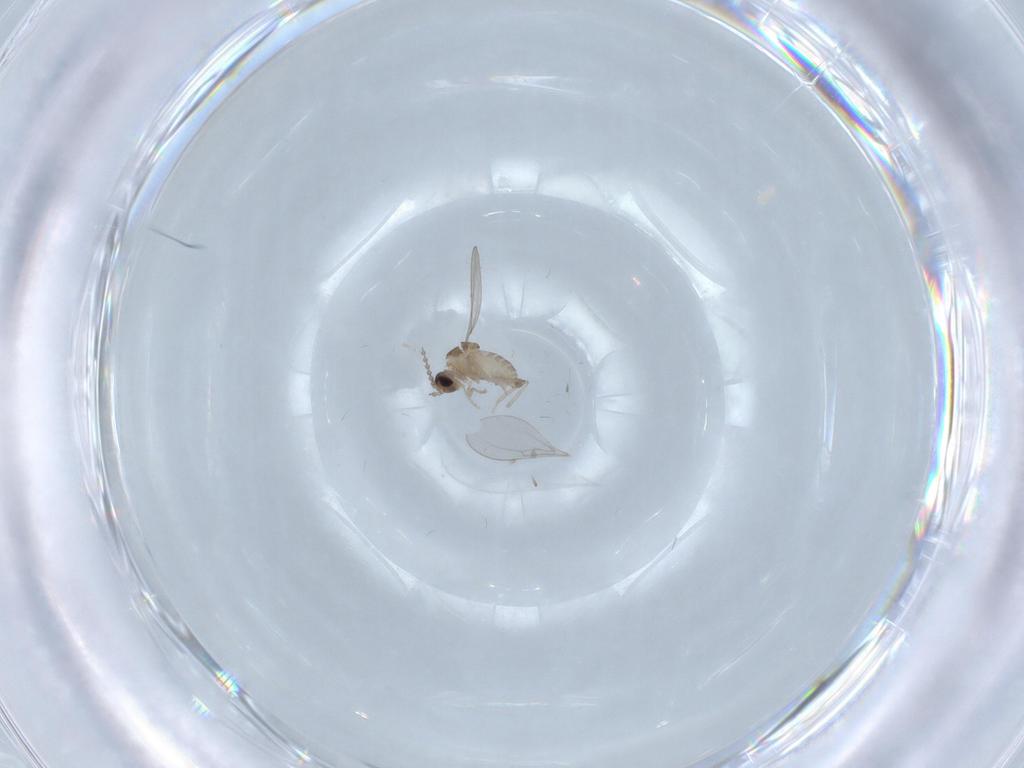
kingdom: Animalia
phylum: Arthropoda
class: Insecta
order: Diptera
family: Cecidomyiidae
